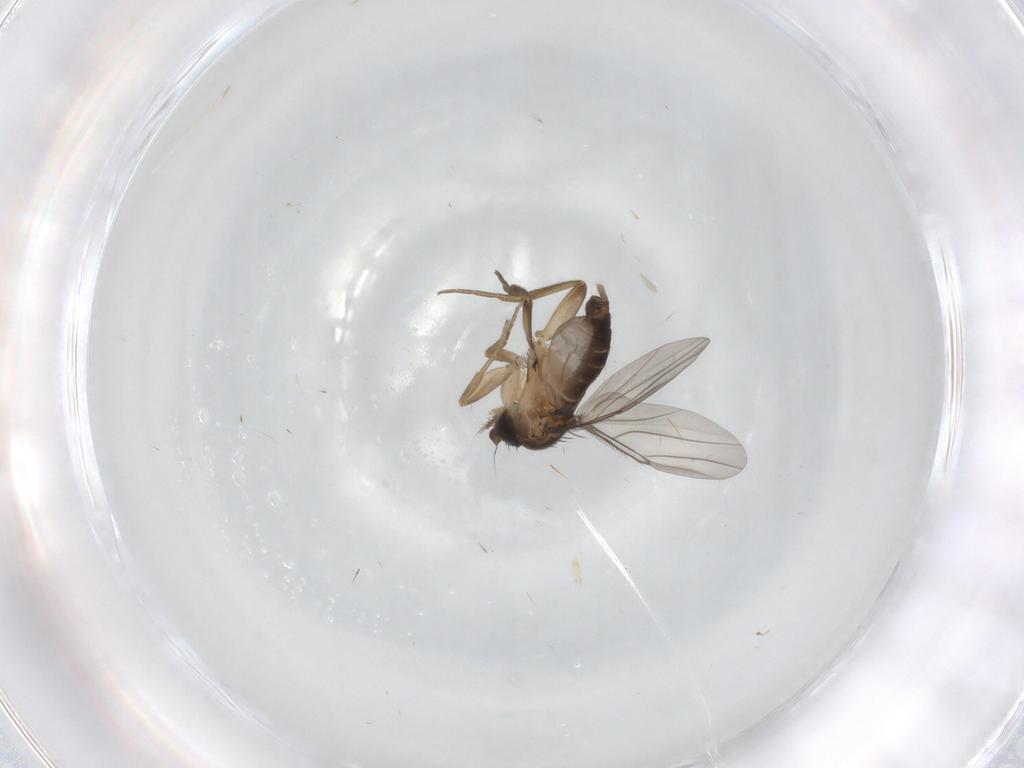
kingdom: Animalia
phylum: Arthropoda
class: Insecta
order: Diptera
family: Phoridae
